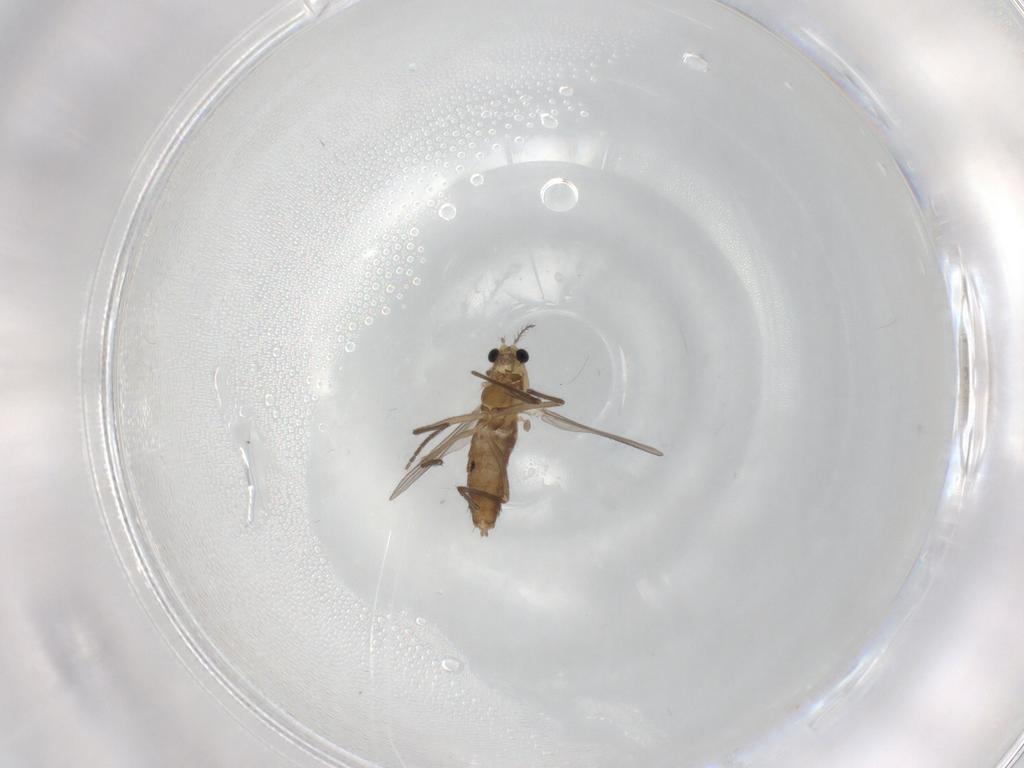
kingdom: Animalia
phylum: Arthropoda
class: Insecta
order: Diptera
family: Chironomidae
